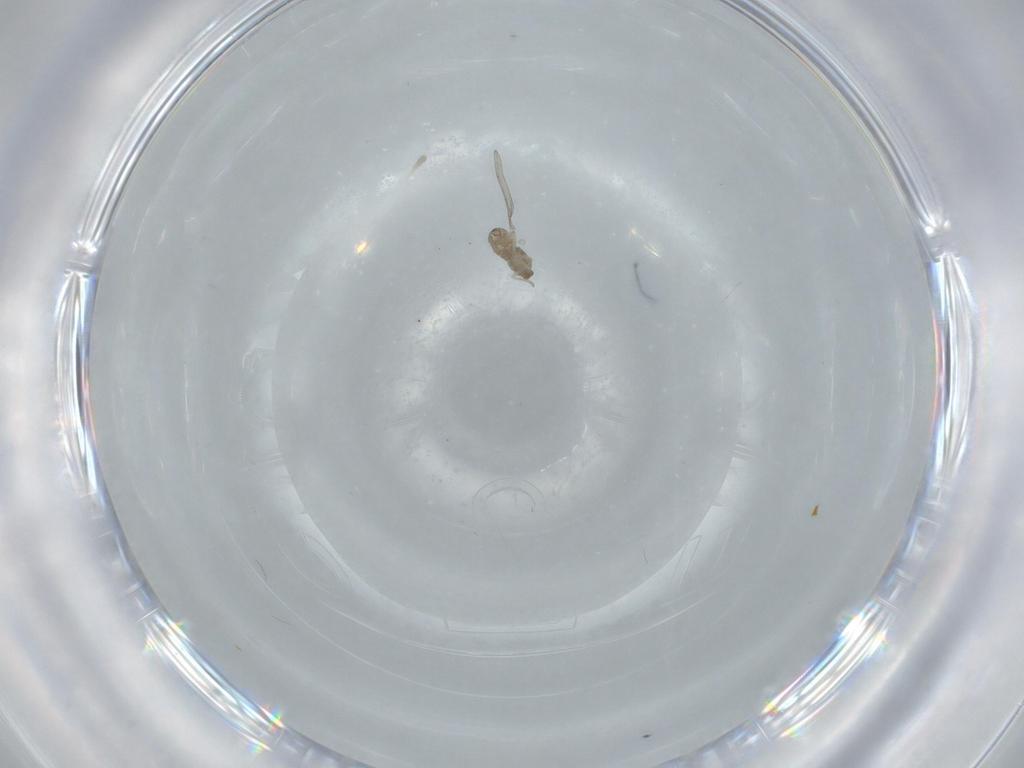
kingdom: Animalia
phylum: Arthropoda
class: Insecta
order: Diptera
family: Cecidomyiidae
